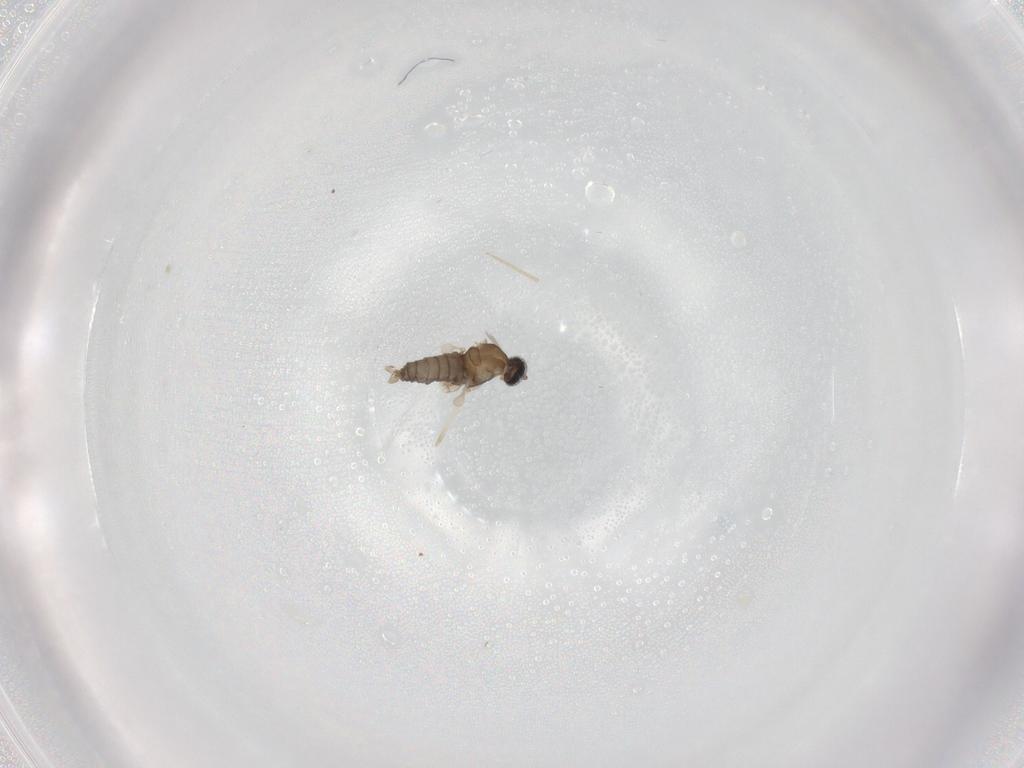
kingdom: Animalia
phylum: Arthropoda
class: Insecta
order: Diptera
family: Cecidomyiidae
